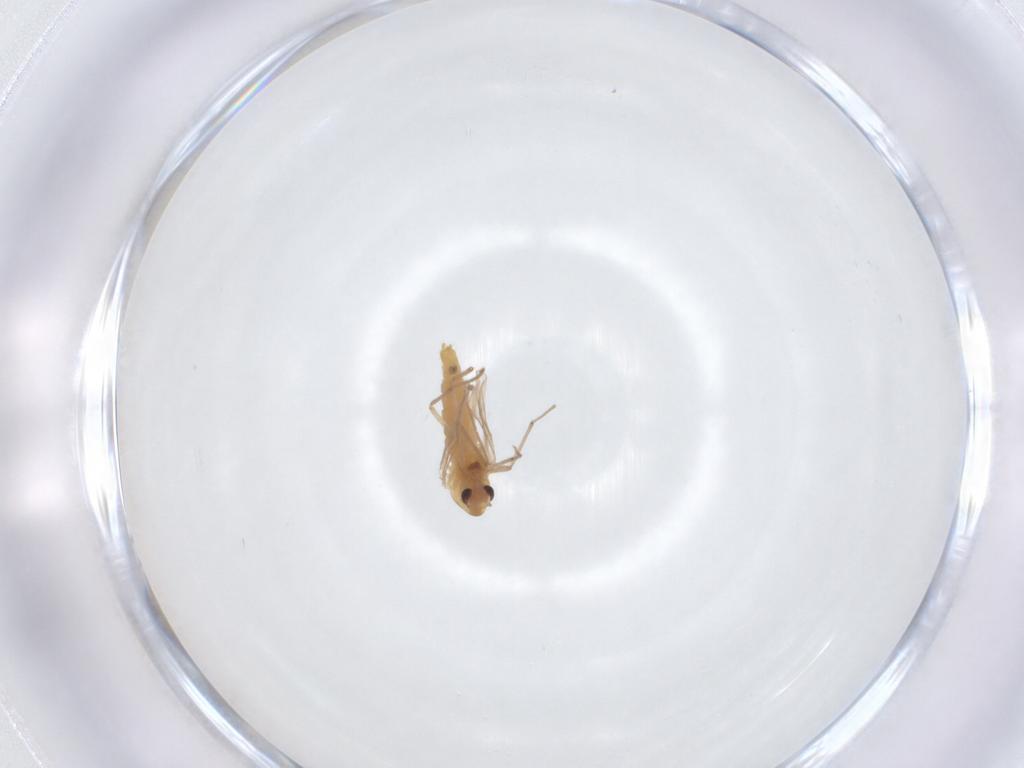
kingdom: Animalia
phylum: Arthropoda
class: Insecta
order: Diptera
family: Chironomidae
